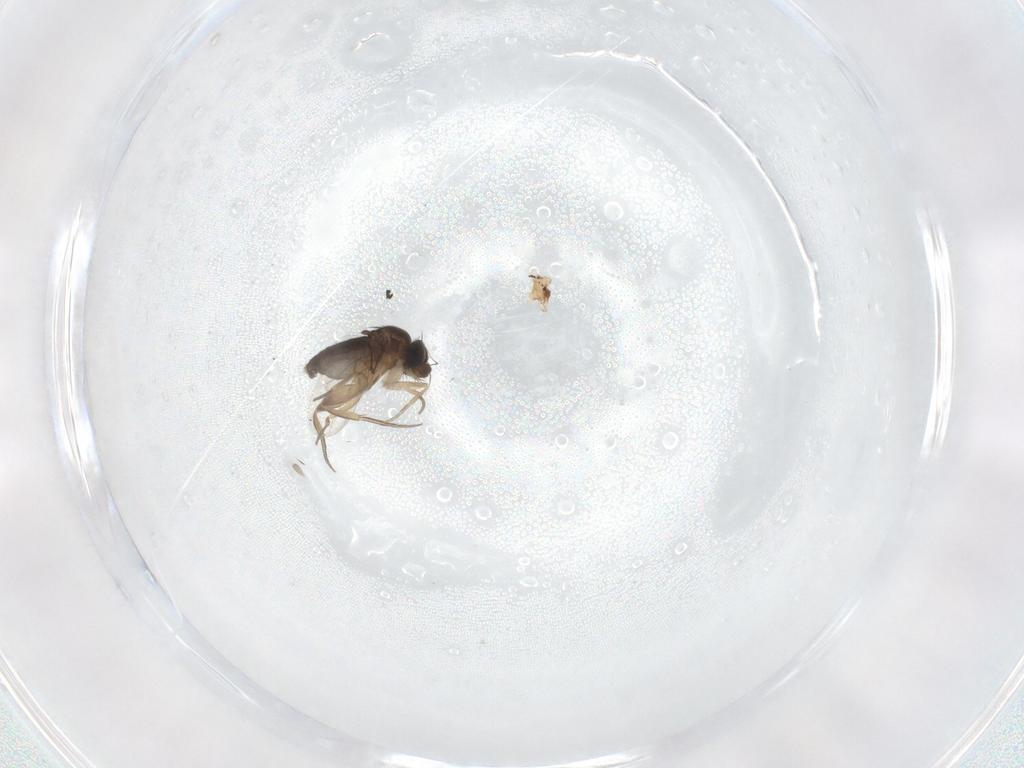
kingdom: Animalia
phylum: Arthropoda
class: Insecta
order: Diptera
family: Phoridae
